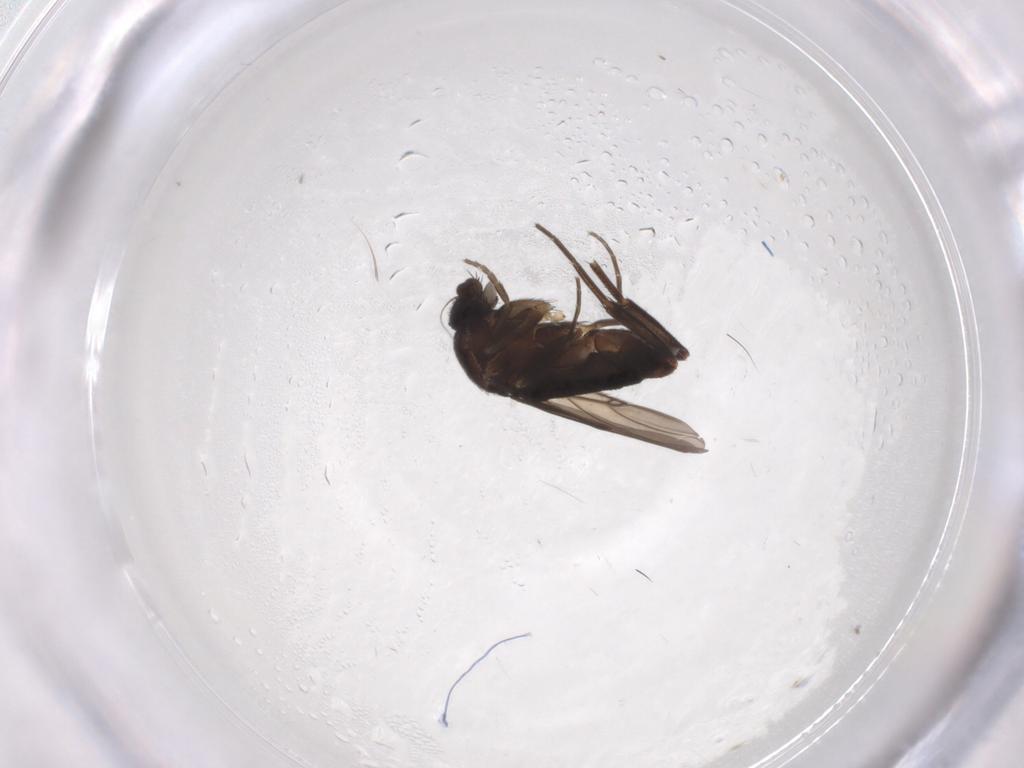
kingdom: Animalia
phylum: Arthropoda
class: Insecta
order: Diptera
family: Phoridae
